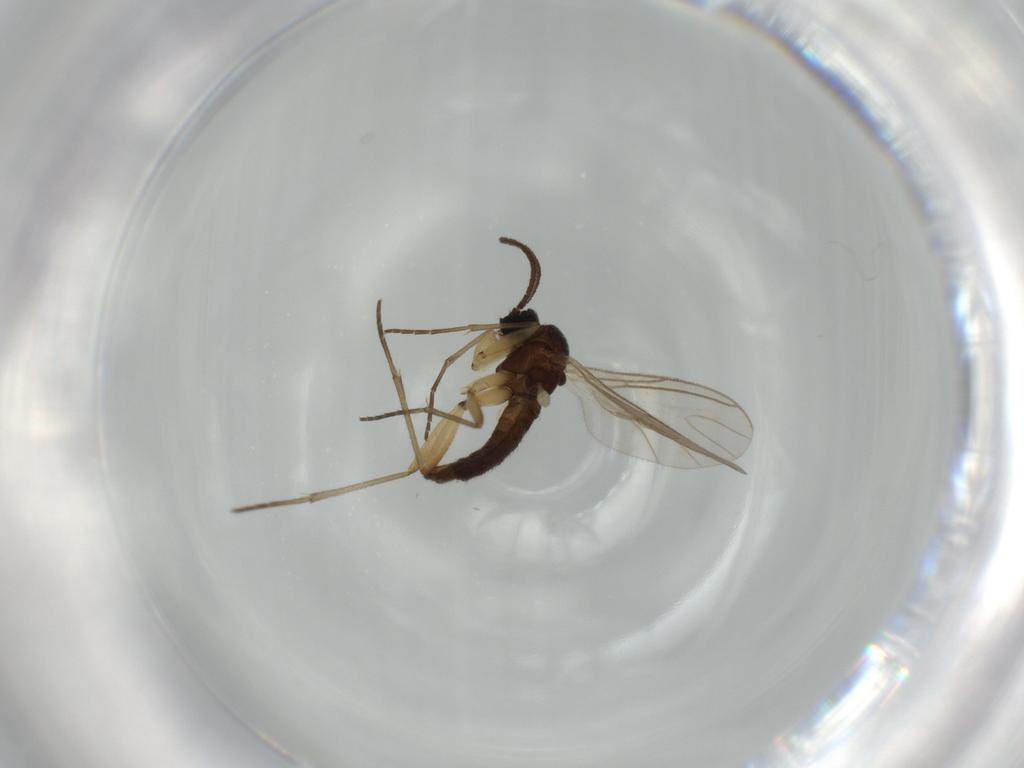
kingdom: Animalia
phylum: Arthropoda
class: Insecta
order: Diptera
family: Sciaridae
